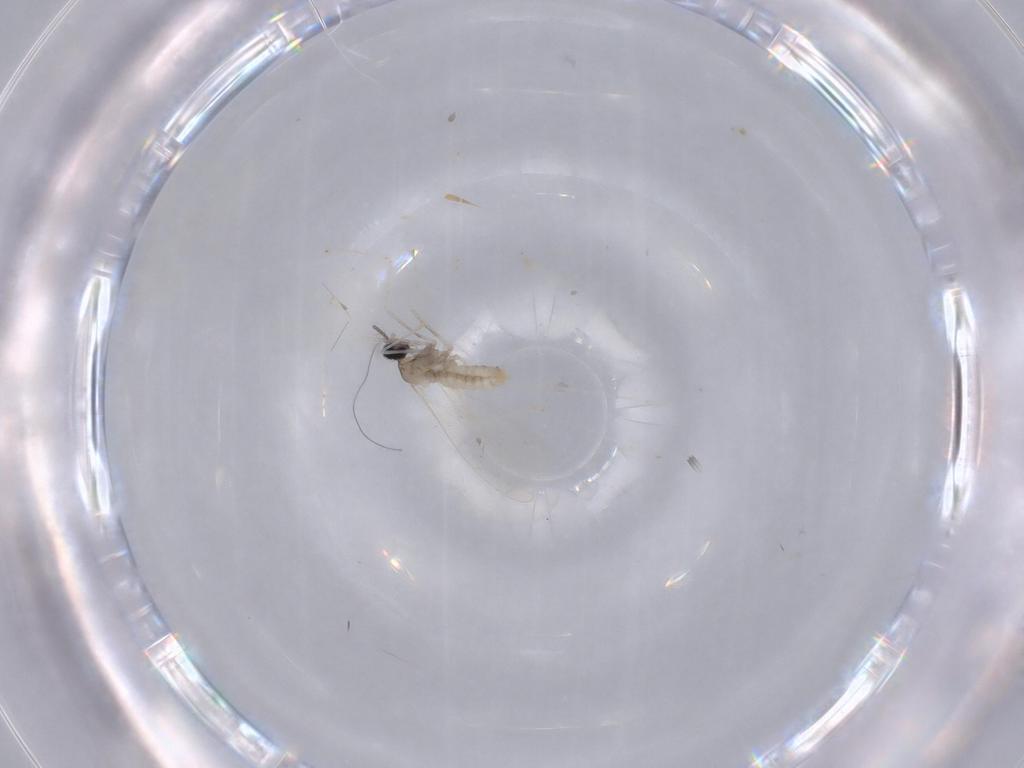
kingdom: Animalia
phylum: Arthropoda
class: Insecta
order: Diptera
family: Cecidomyiidae
